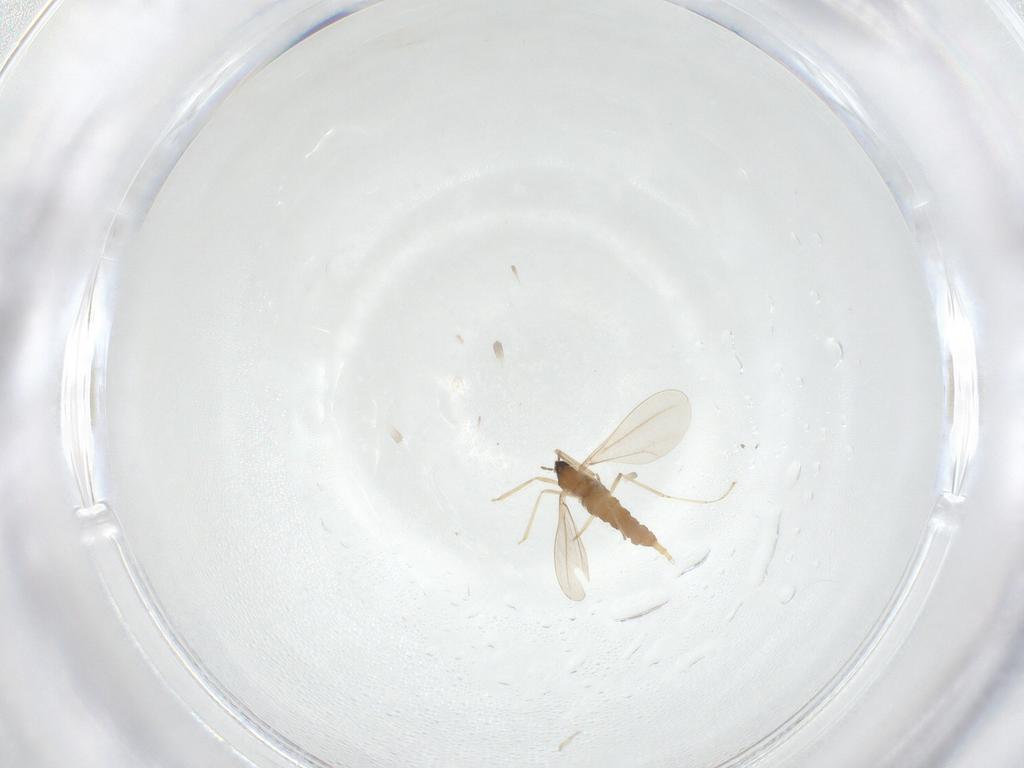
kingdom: Animalia
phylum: Arthropoda
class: Insecta
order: Diptera
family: Cecidomyiidae
